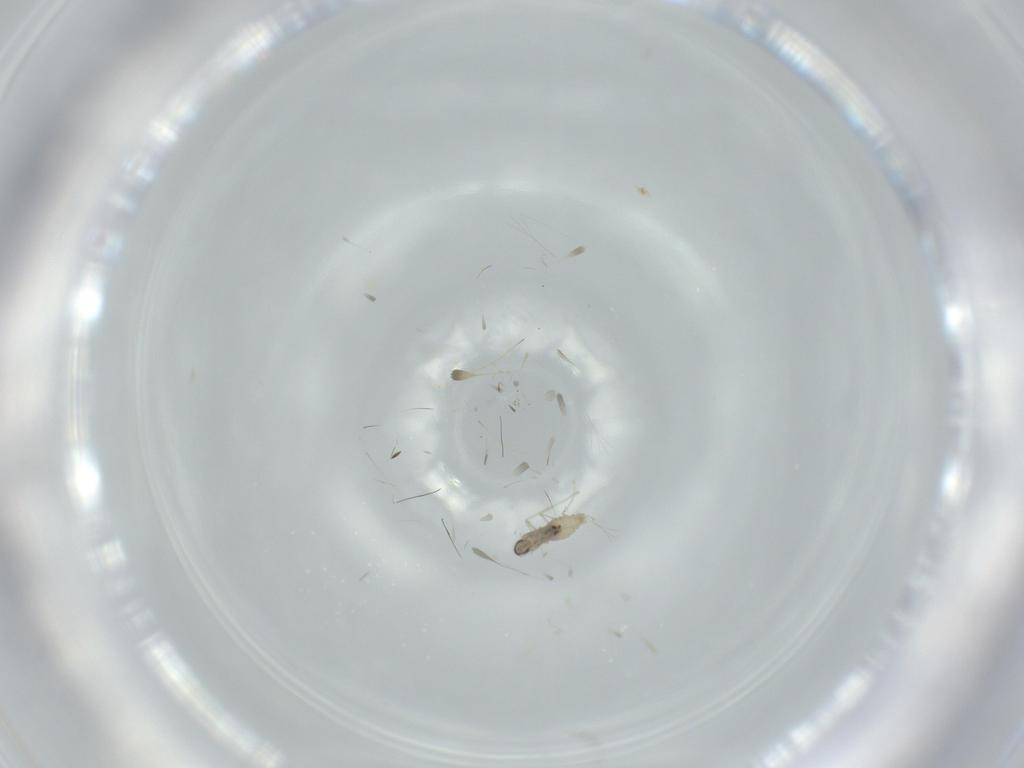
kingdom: Animalia
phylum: Arthropoda
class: Insecta
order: Diptera
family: Cecidomyiidae
